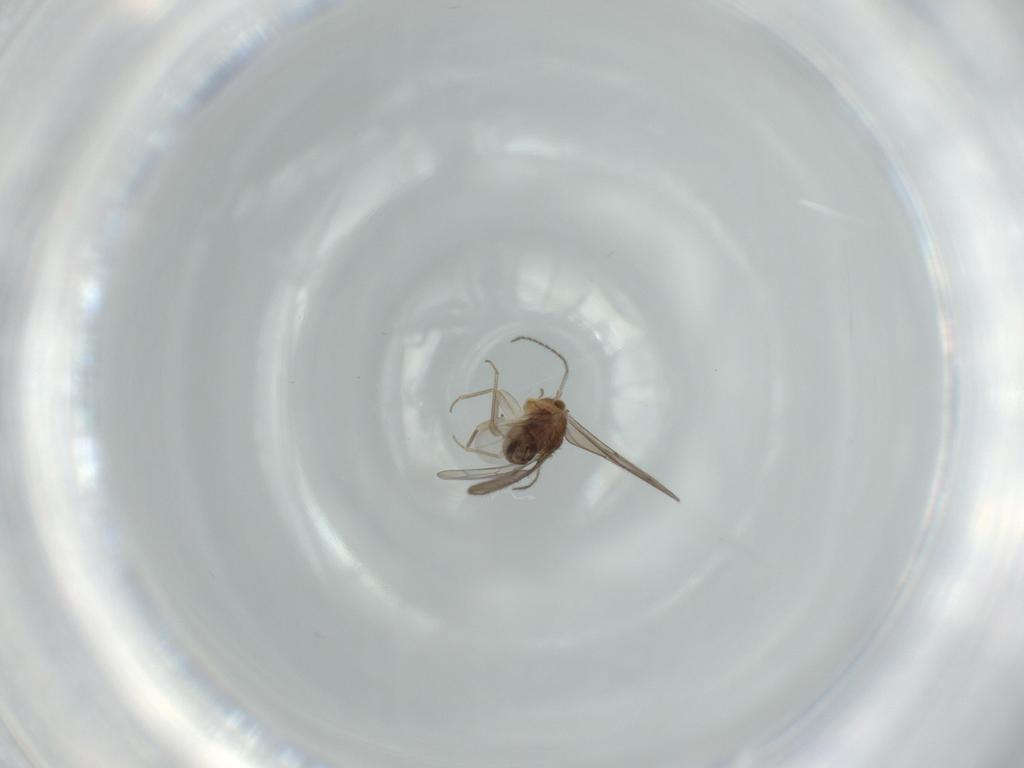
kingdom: Animalia
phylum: Arthropoda
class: Insecta
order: Psocodea
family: Ectopsocidae
